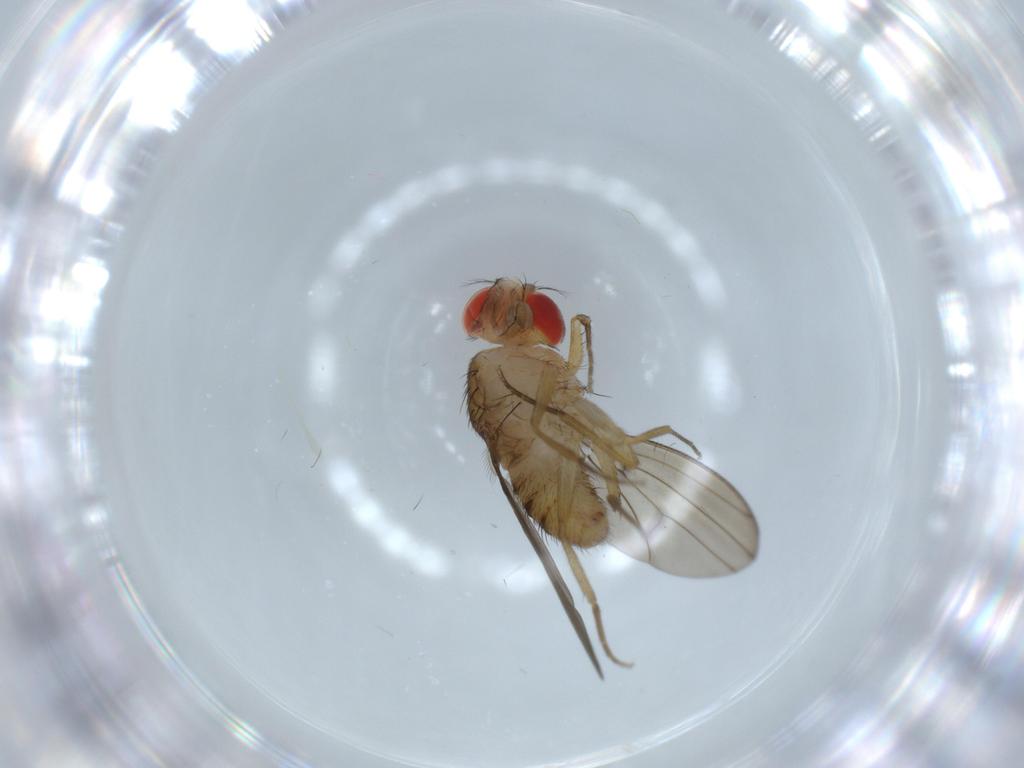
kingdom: Animalia
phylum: Arthropoda
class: Insecta
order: Diptera
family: Drosophilidae
